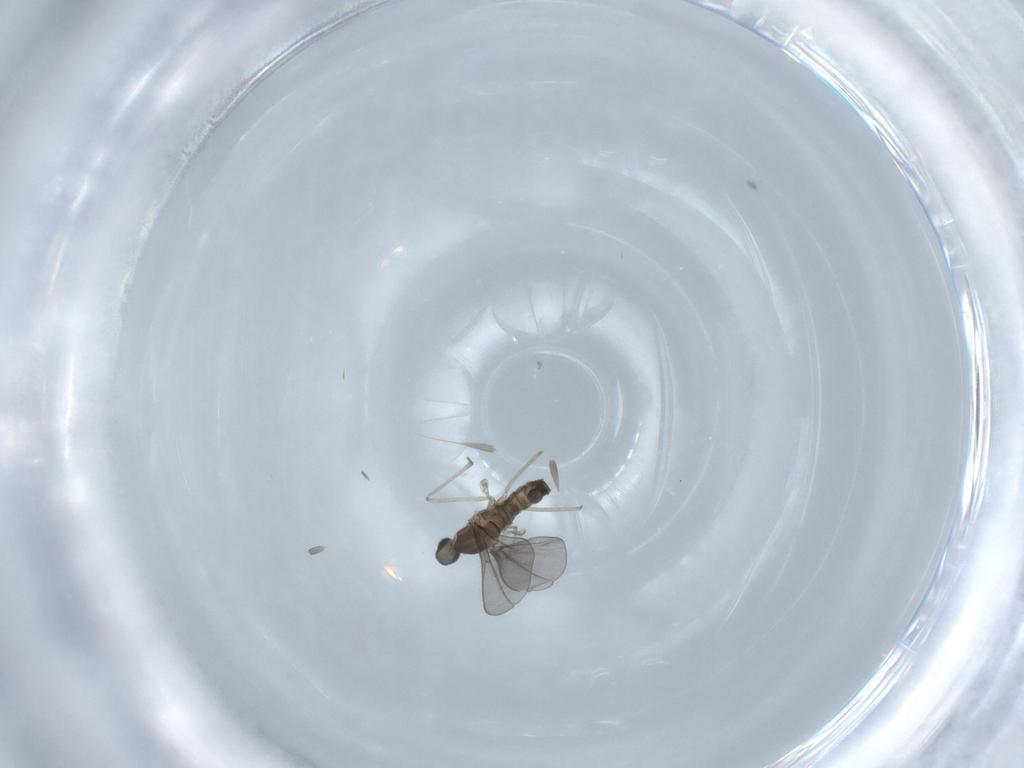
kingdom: Animalia
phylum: Arthropoda
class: Insecta
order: Diptera
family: Cecidomyiidae
